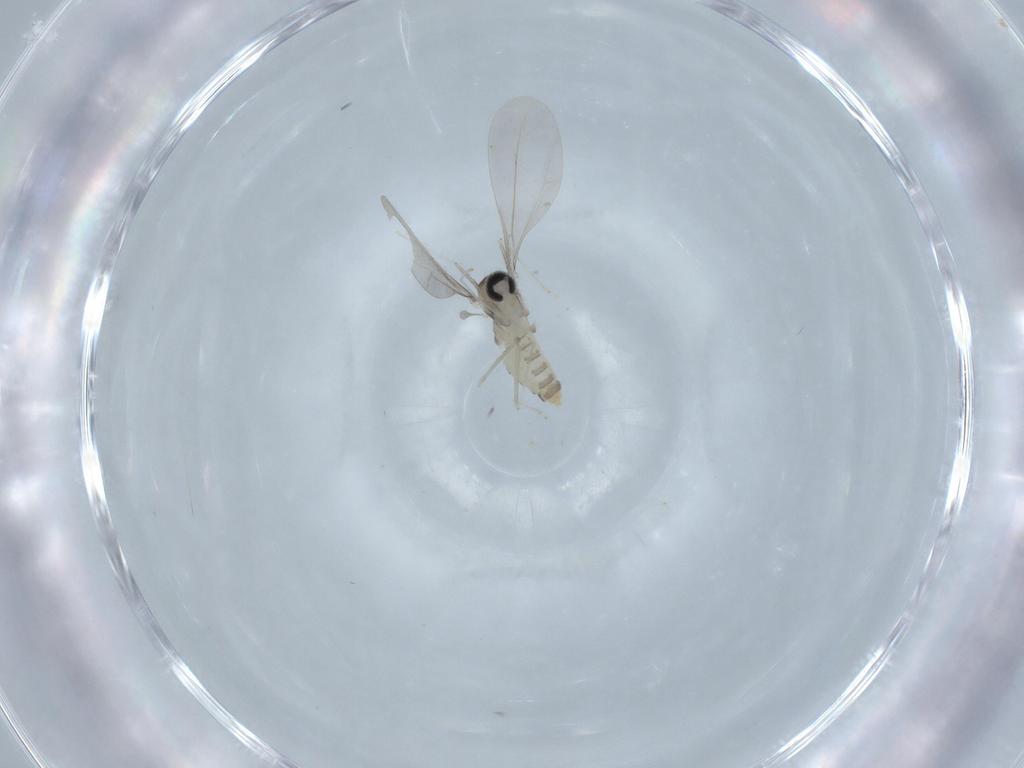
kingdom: Animalia
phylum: Arthropoda
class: Insecta
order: Diptera
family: Cecidomyiidae
